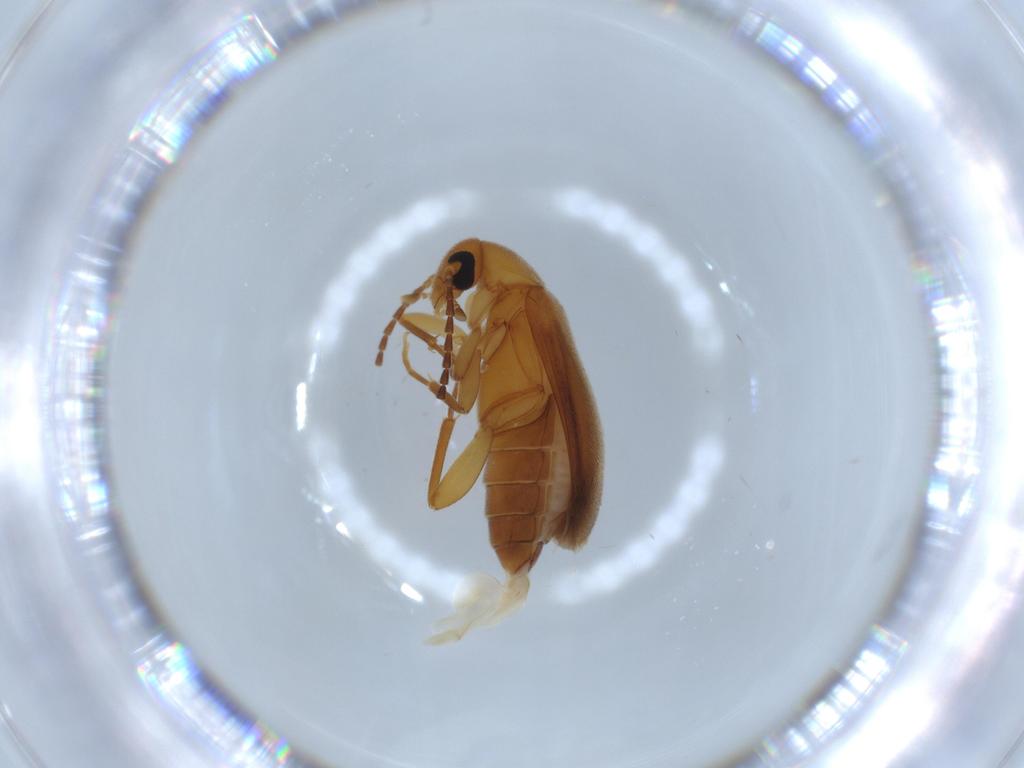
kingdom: Animalia
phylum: Arthropoda
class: Insecta
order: Coleoptera
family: Scraptiidae
